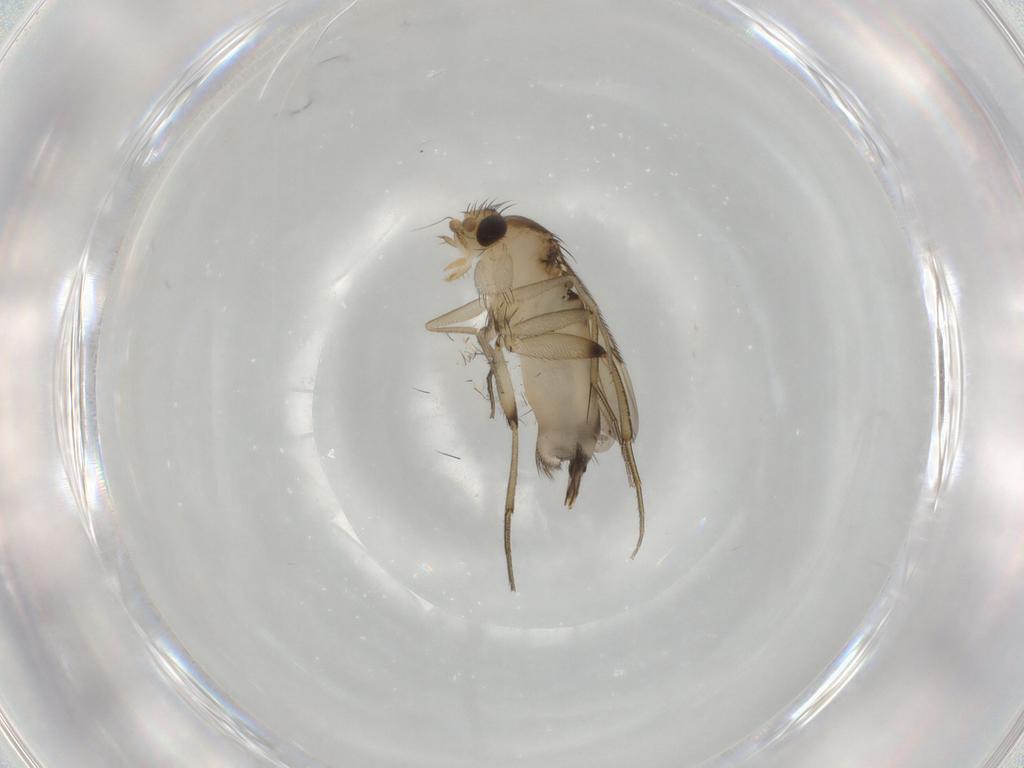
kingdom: Animalia
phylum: Arthropoda
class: Insecta
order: Diptera
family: Phoridae
